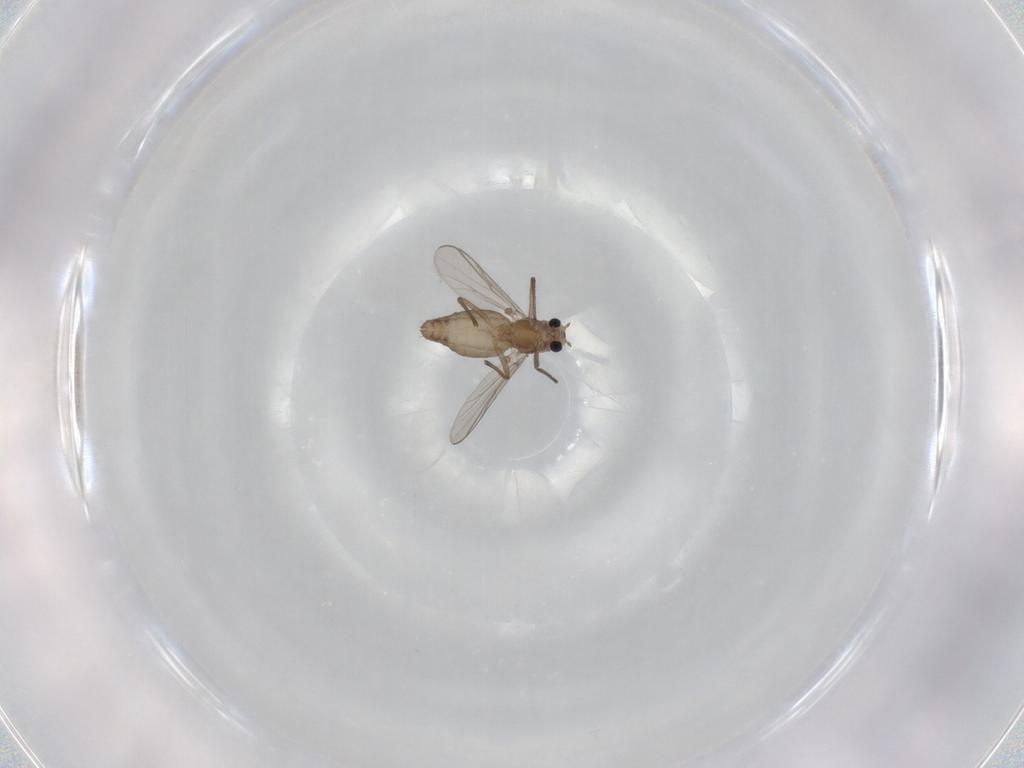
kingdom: Animalia
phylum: Arthropoda
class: Insecta
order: Diptera
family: Chironomidae
